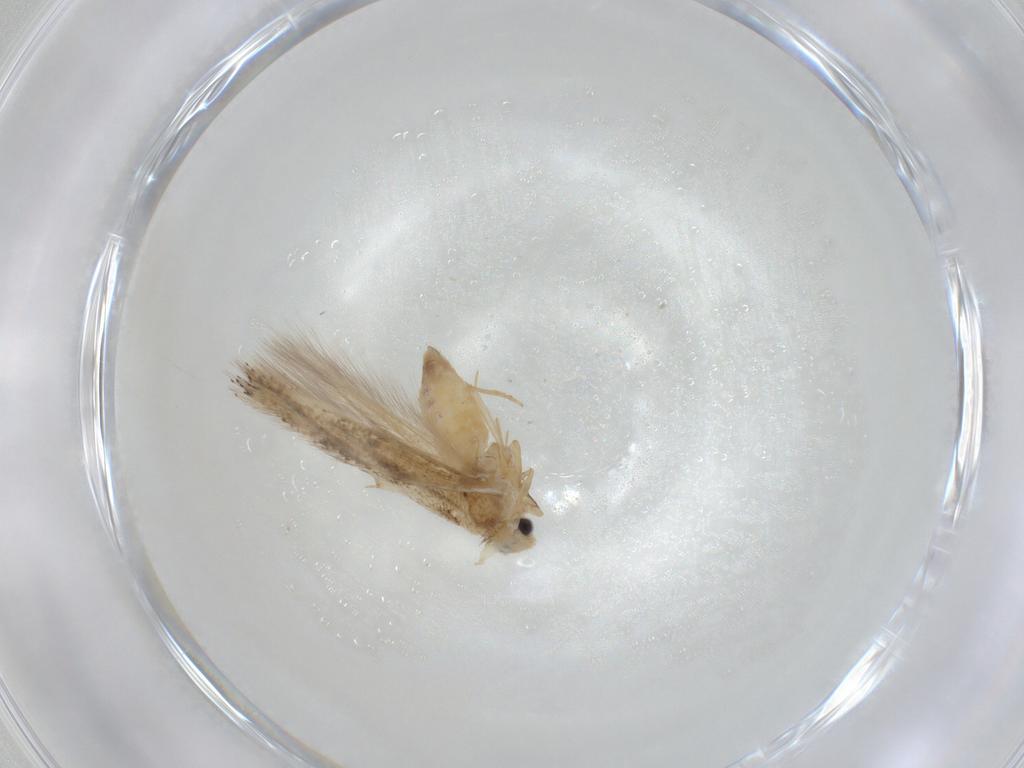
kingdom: Animalia
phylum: Arthropoda
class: Insecta
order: Lepidoptera
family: Bucculatricidae
